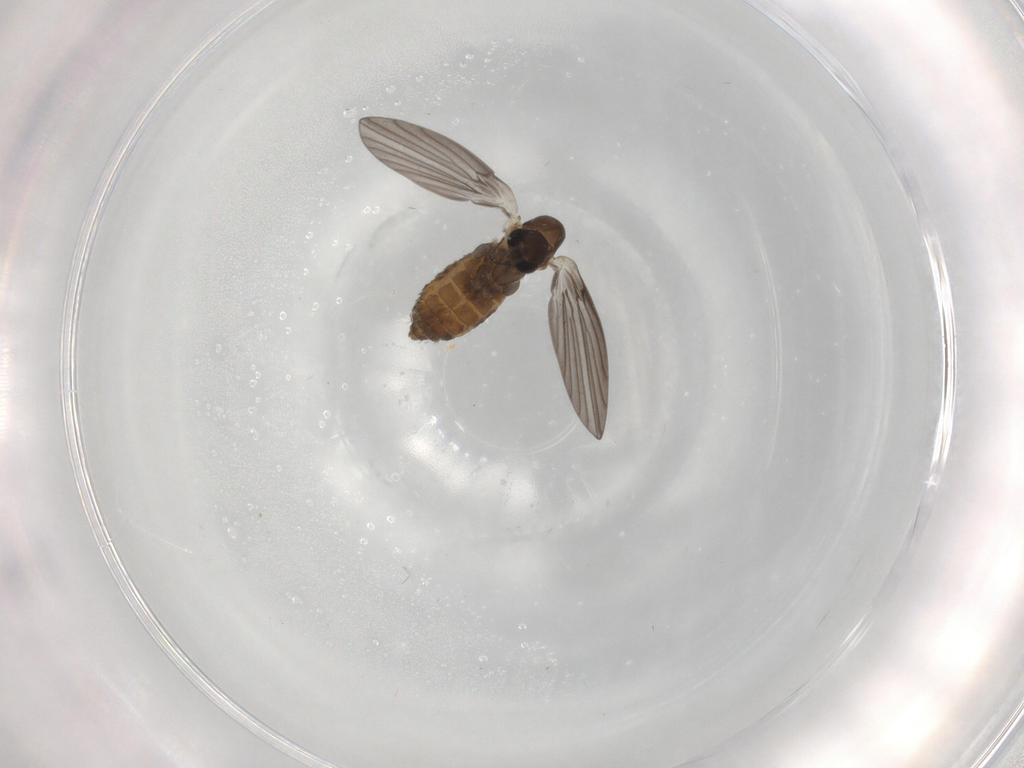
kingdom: Animalia
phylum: Arthropoda
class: Insecta
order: Diptera
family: Psychodidae
